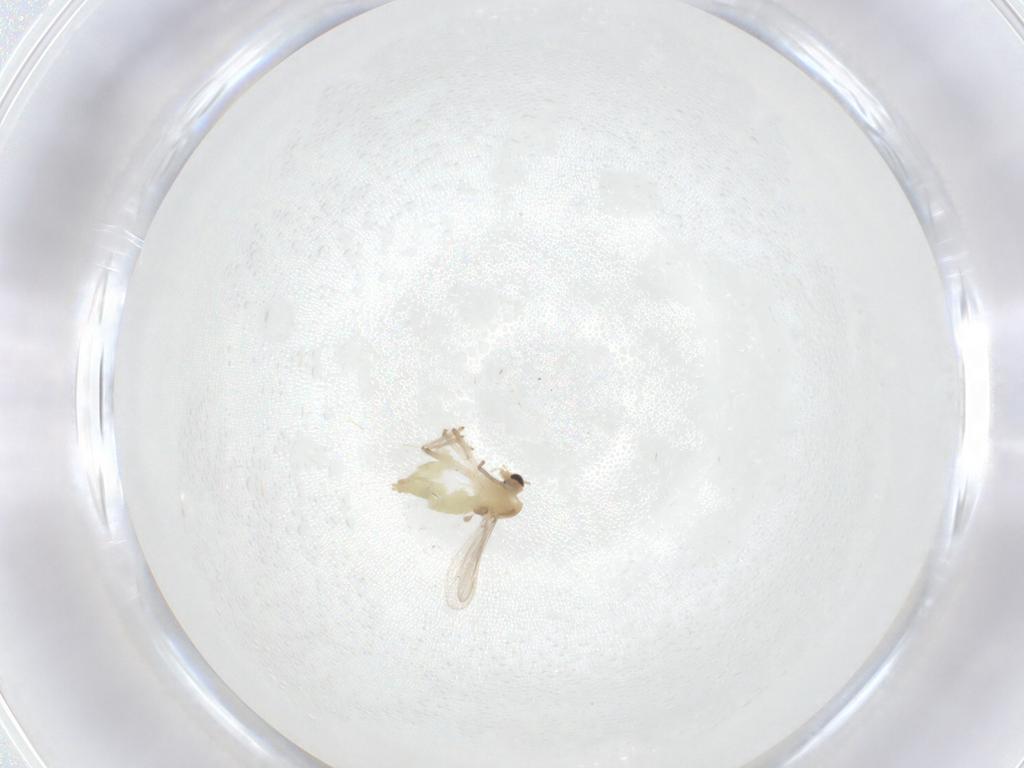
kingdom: Animalia
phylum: Arthropoda
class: Insecta
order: Diptera
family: Chironomidae
